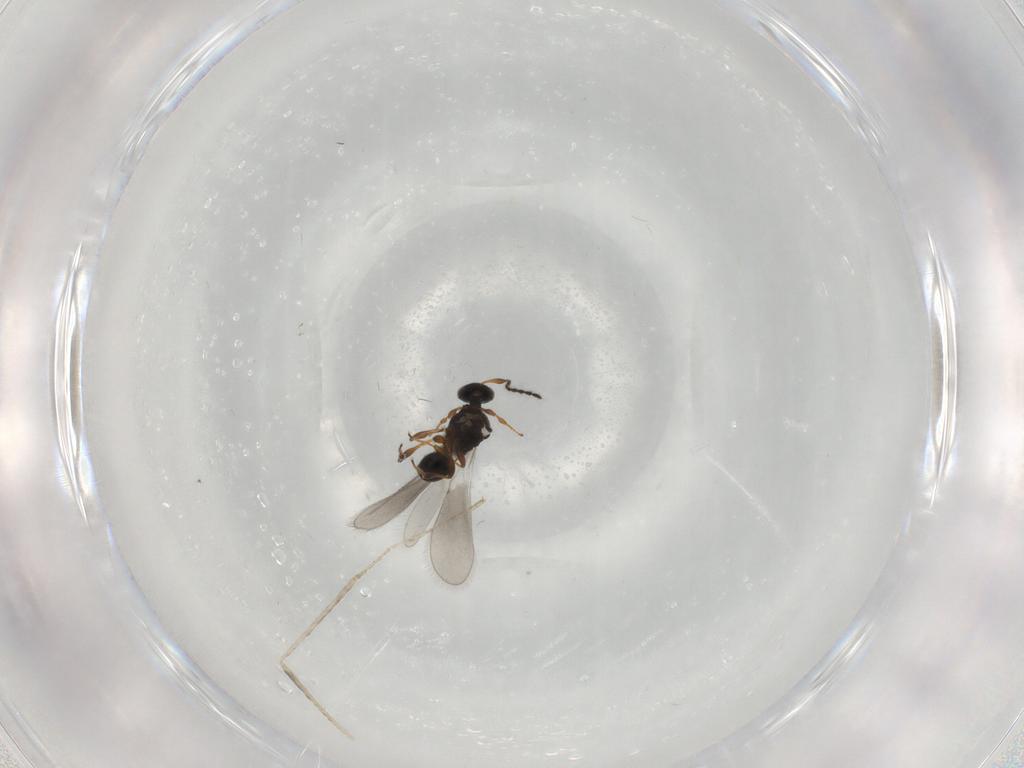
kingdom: Animalia
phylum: Arthropoda
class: Insecta
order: Hymenoptera
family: Platygastridae
